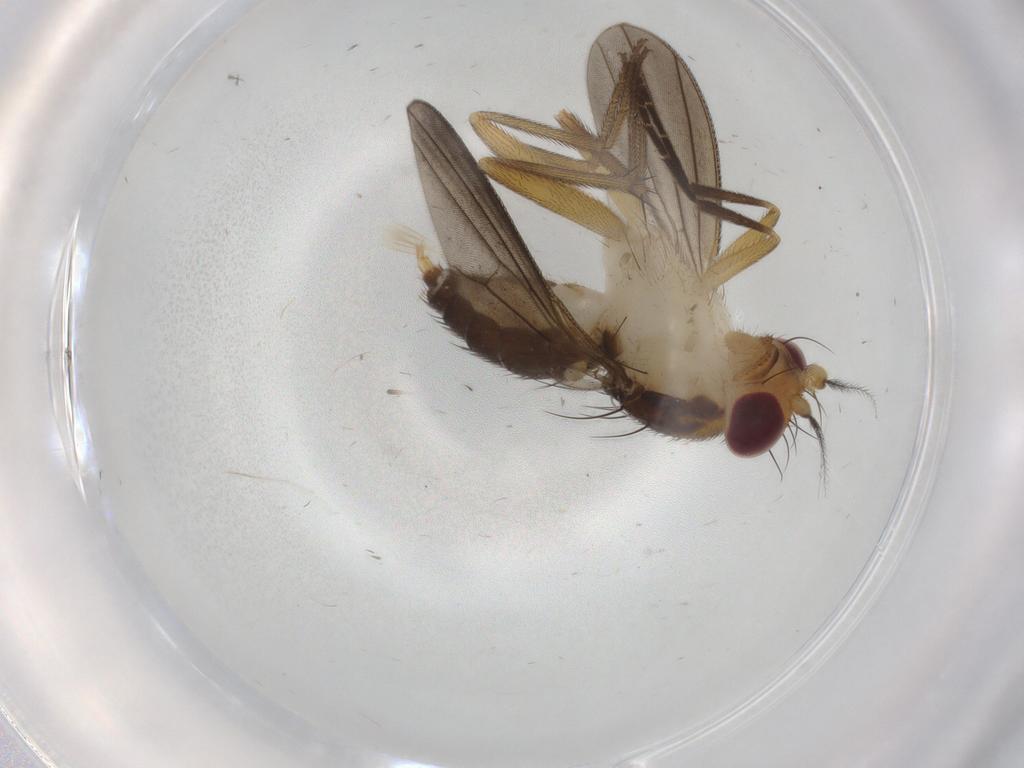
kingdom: Animalia
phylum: Arthropoda
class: Insecta
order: Diptera
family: Clusiidae
